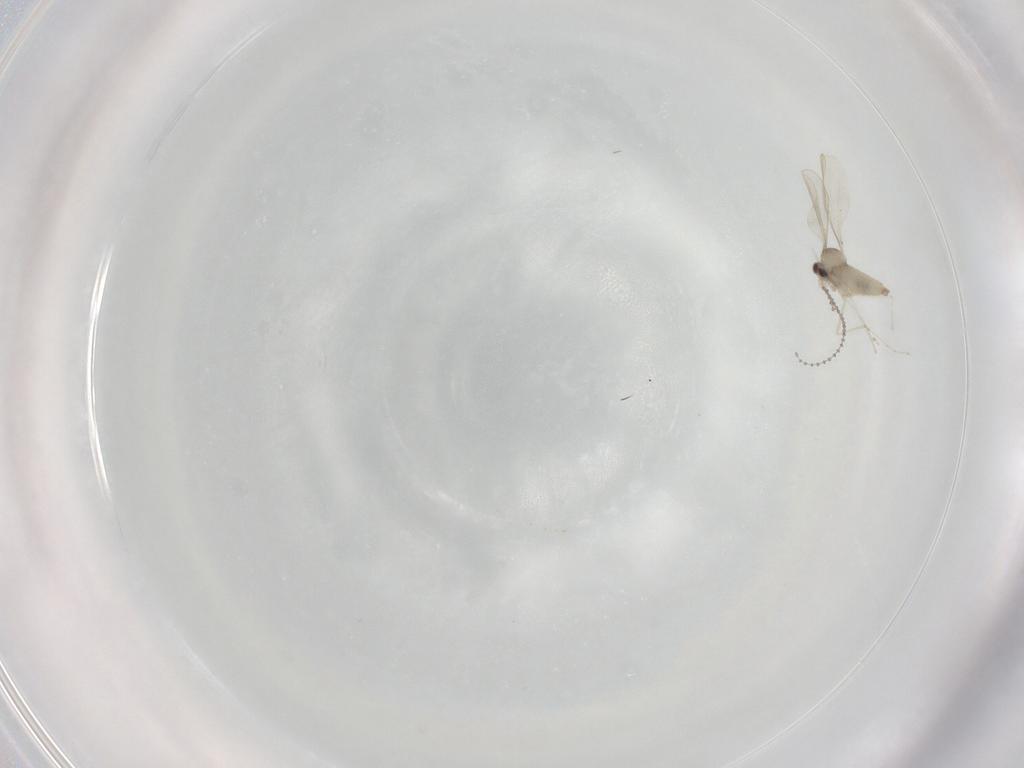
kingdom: Animalia
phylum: Arthropoda
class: Insecta
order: Diptera
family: Cecidomyiidae
